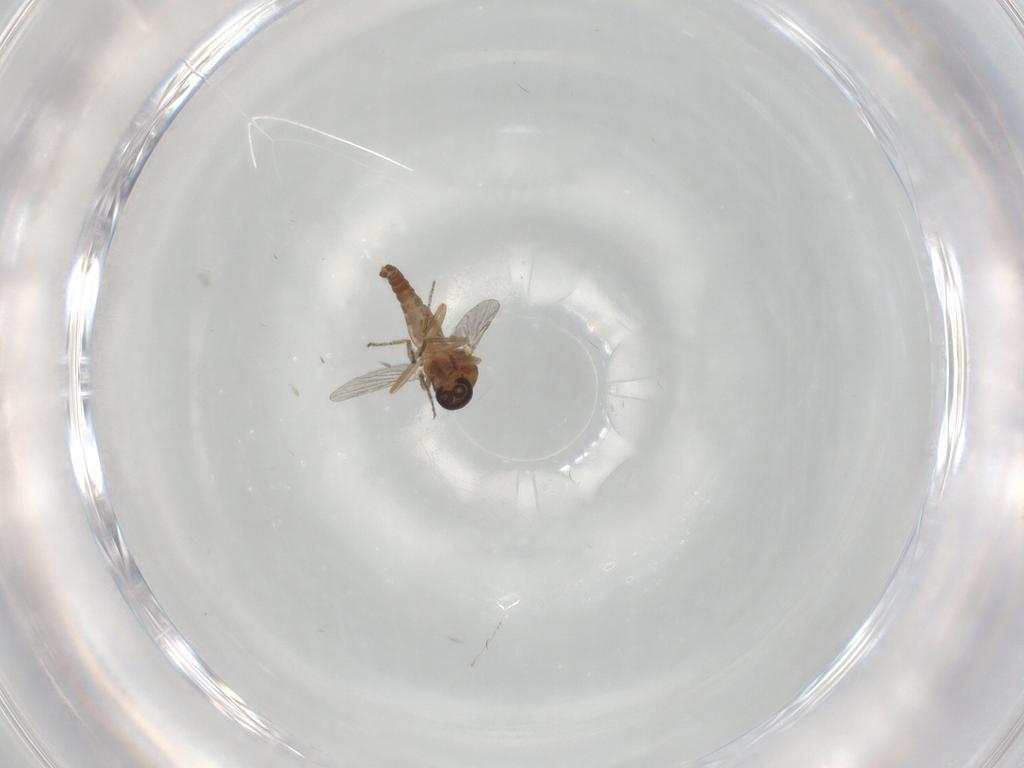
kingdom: Animalia
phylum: Arthropoda
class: Insecta
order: Diptera
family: Ceratopogonidae
